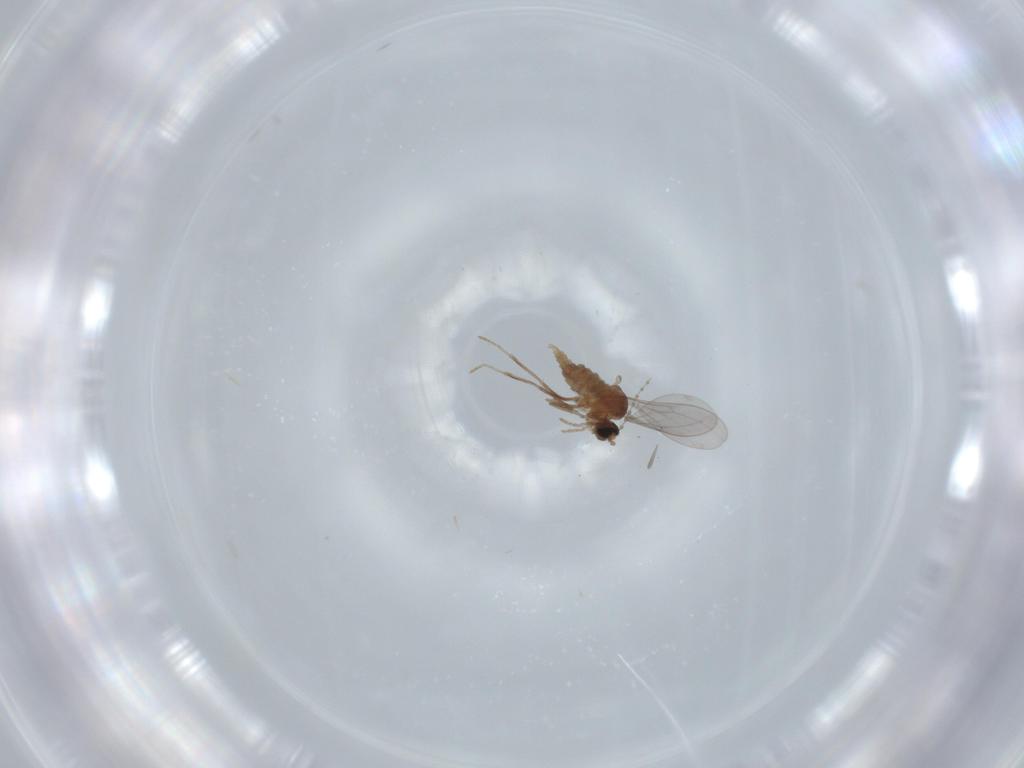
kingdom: Animalia
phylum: Arthropoda
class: Insecta
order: Diptera
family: Cecidomyiidae
